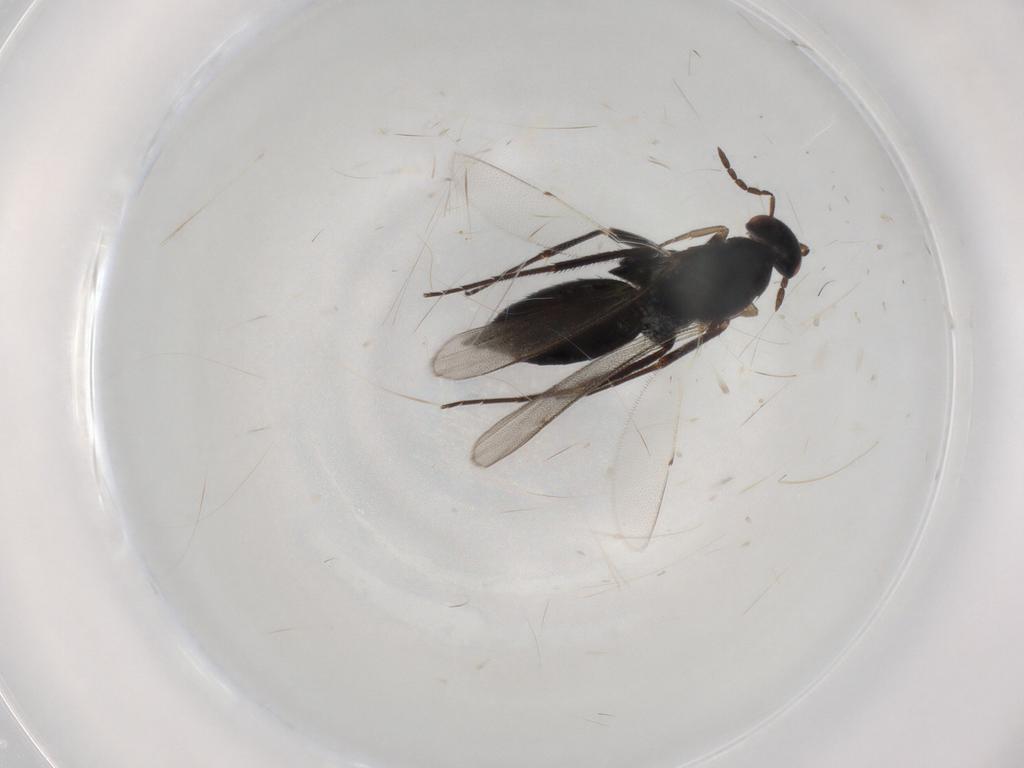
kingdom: Animalia
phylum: Arthropoda
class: Insecta
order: Hymenoptera
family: Eulophidae
